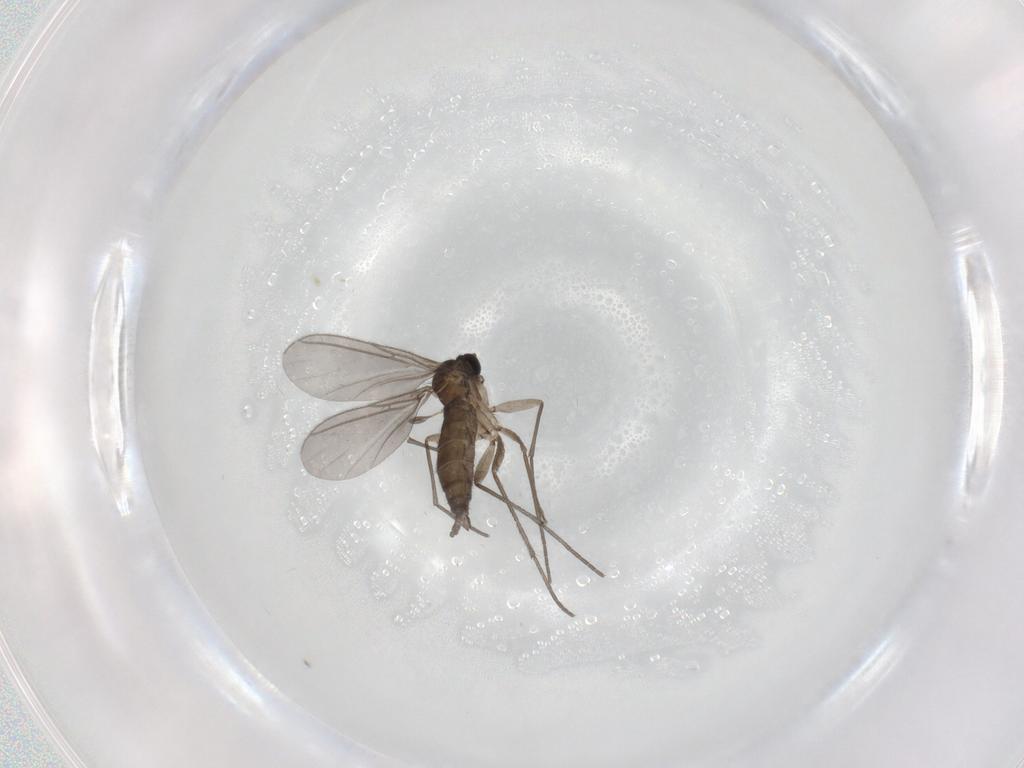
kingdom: Animalia
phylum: Arthropoda
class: Insecta
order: Diptera
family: Sciaridae
